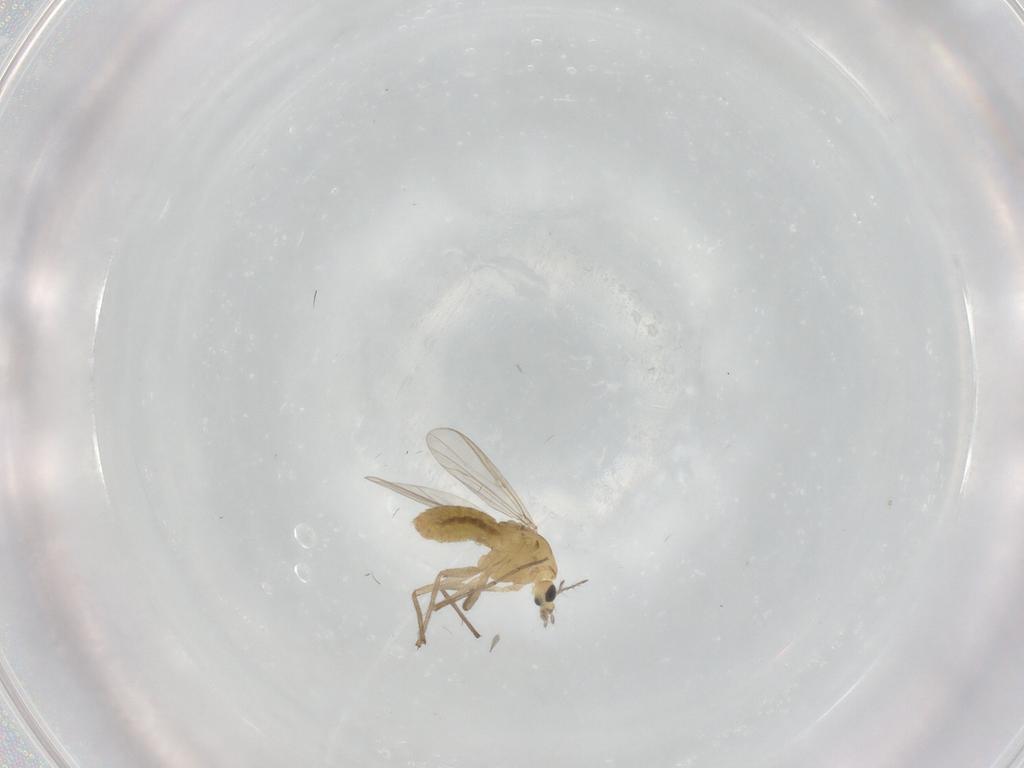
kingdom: Animalia
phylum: Arthropoda
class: Insecta
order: Diptera
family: Chironomidae
